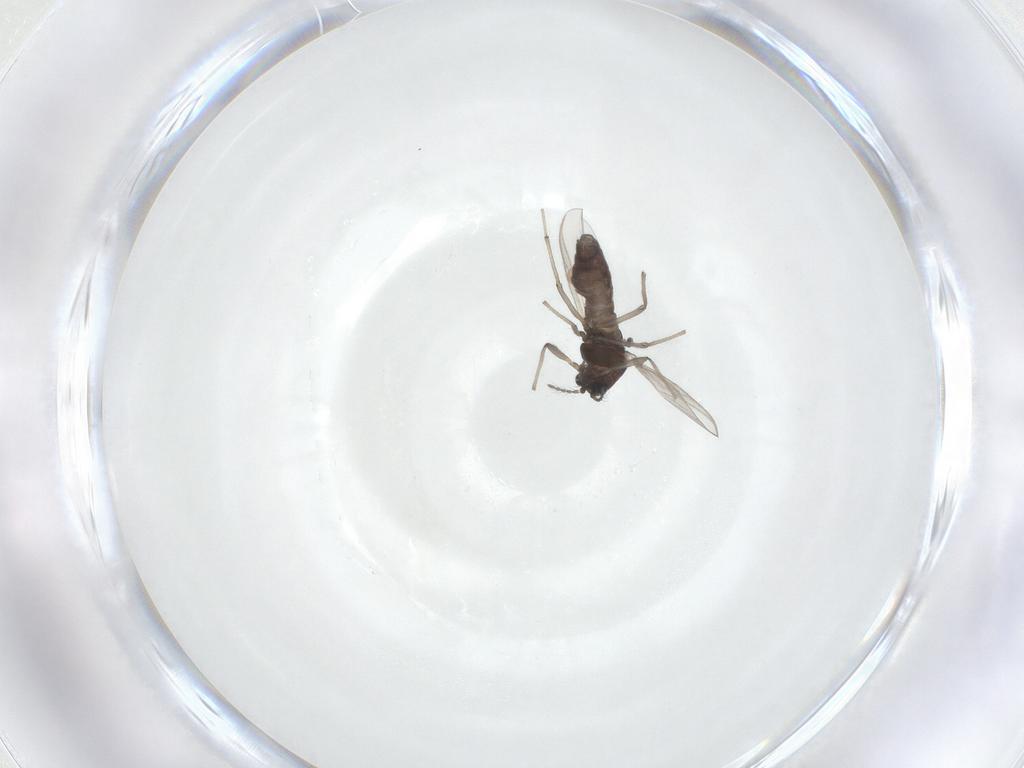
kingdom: Animalia
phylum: Arthropoda
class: Insecta
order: Diptera
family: Chironomidae
